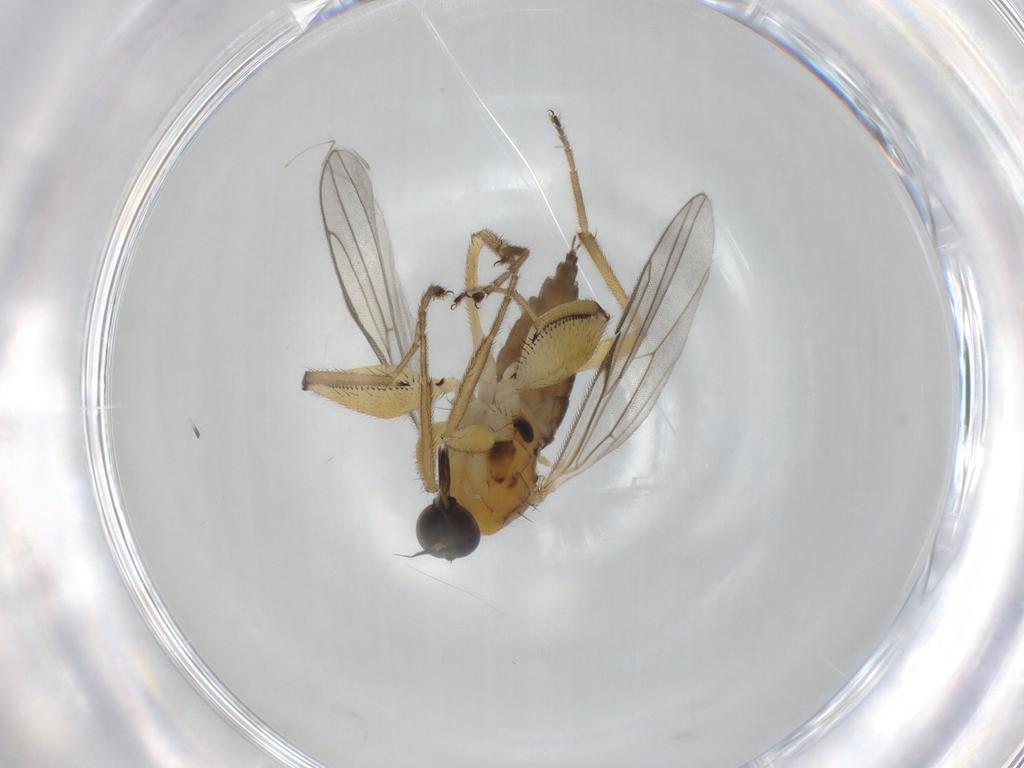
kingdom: Animalia
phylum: Arthropoda
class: Insecta
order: Diptera
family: Hybotidae
